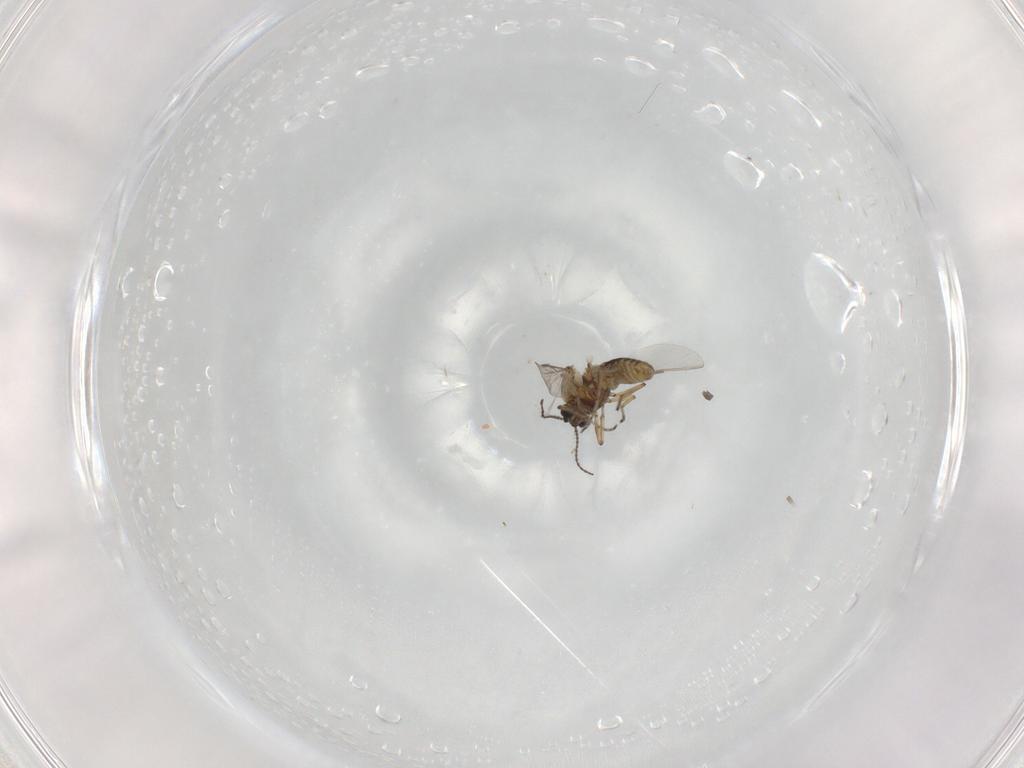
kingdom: Animalia
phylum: Arthropoda
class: Insecta
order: Diptera
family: Ceratopogonidae
